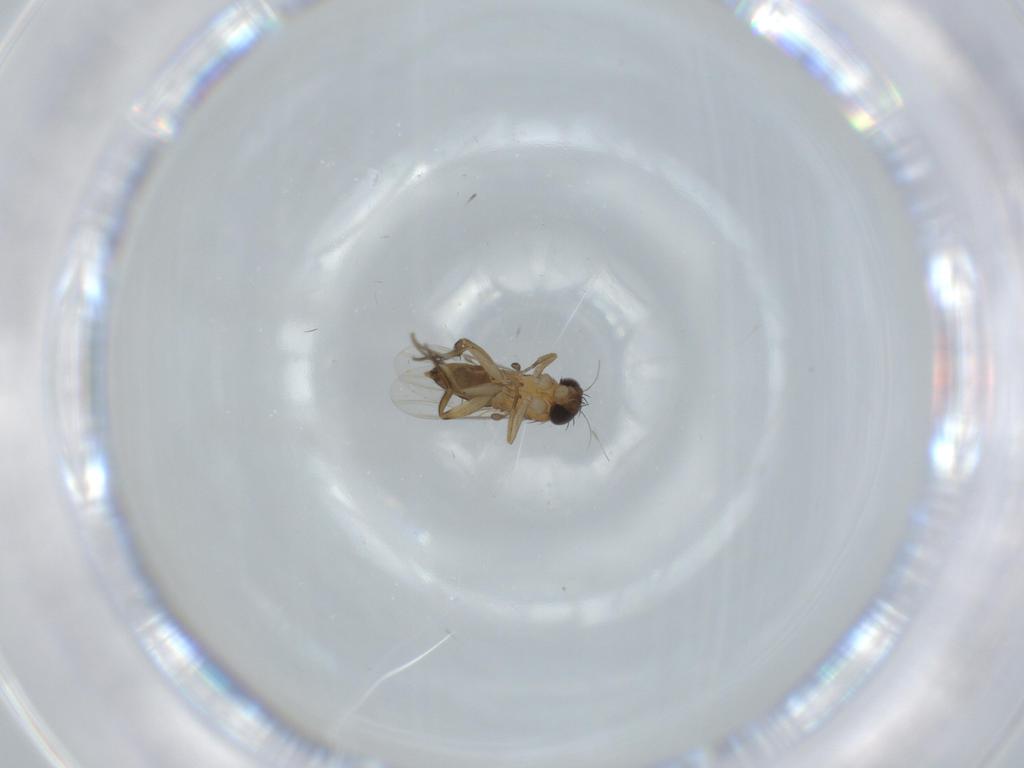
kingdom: Animalia
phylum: Arthropoda
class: Insecta
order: Diptera
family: Phoridae
